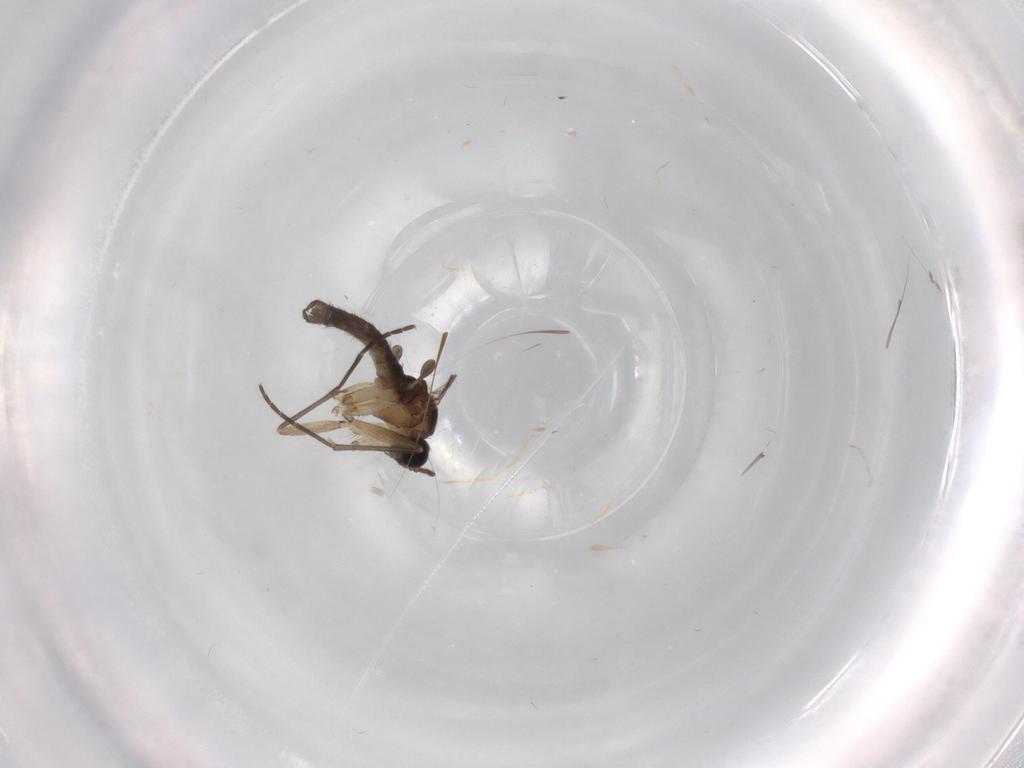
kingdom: Animalia
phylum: Arthropoda
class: Insecta
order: Diptera
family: Sciaridae
